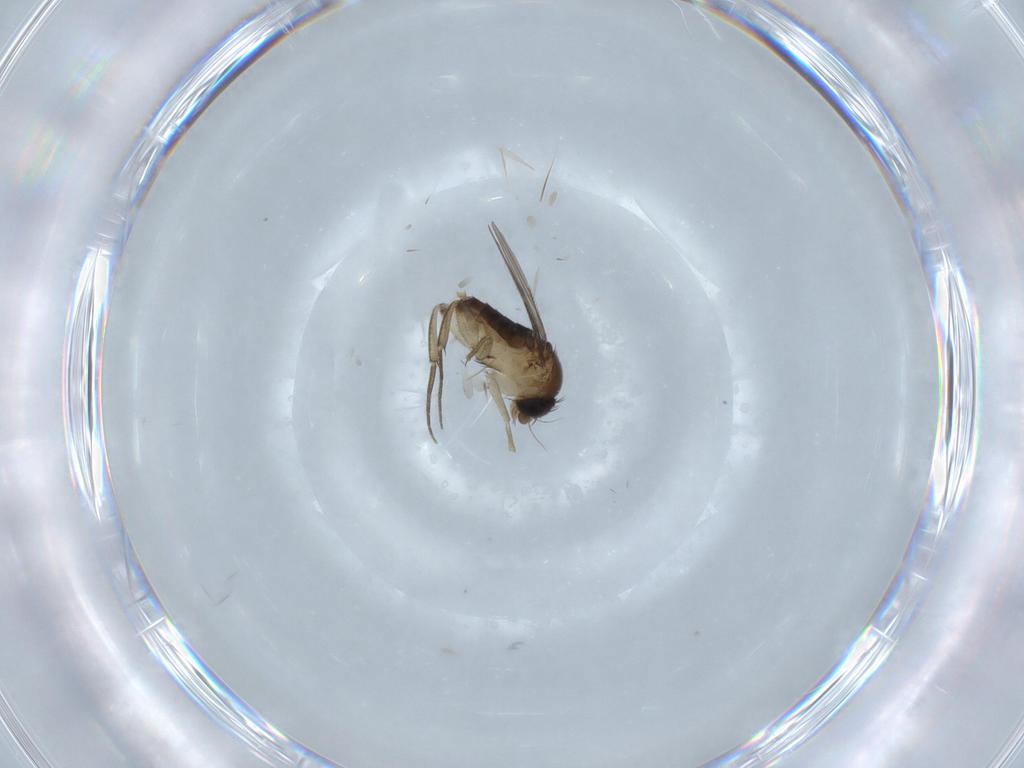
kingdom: Animalia
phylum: Arthropoda
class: Insecta
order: Diptera
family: Phoridae
